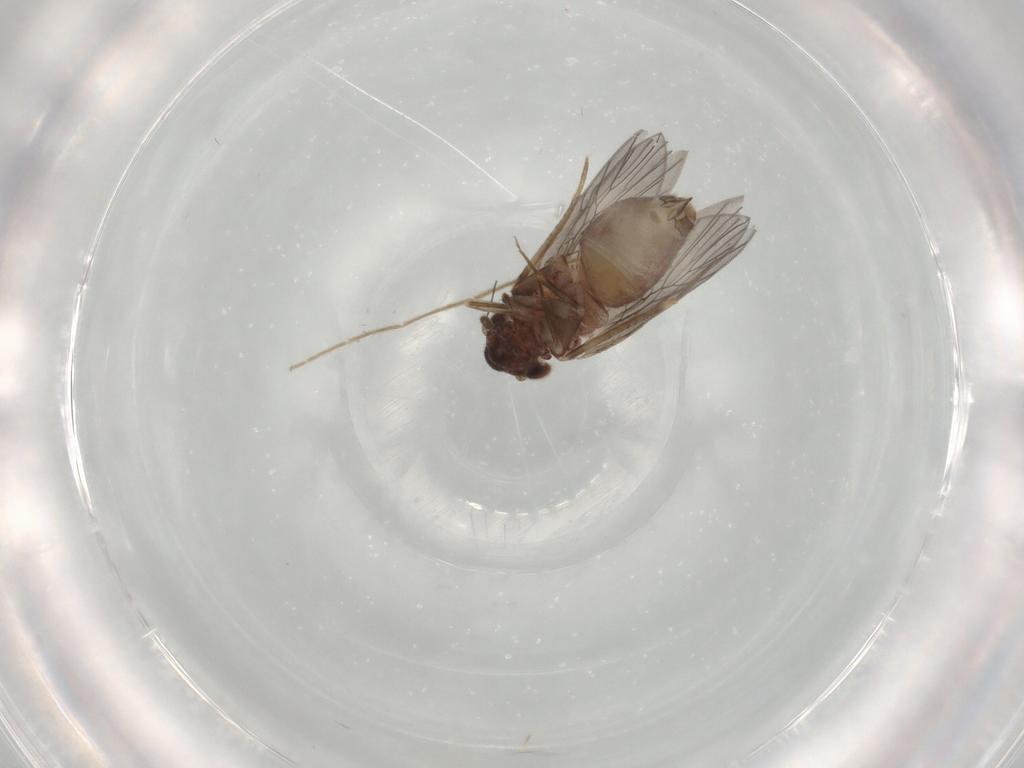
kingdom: Animalia
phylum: Arthropoda
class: Insecta
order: Psocodea
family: Lepidopsocidae
